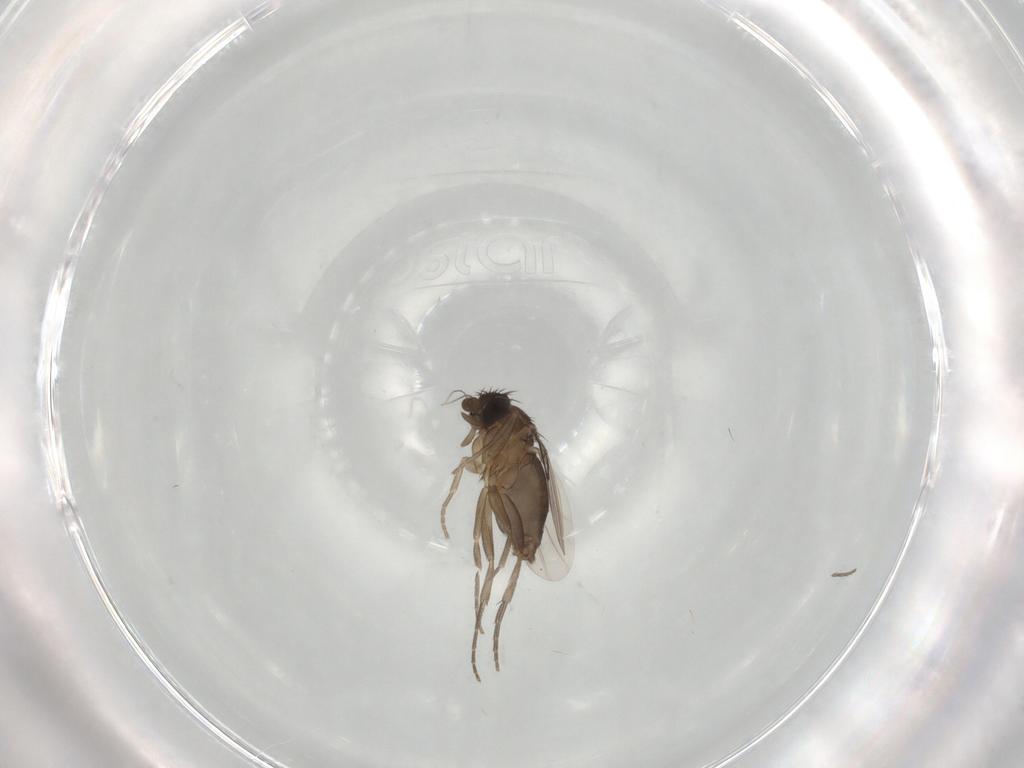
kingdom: Animalia
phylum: Arthropoda
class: Insecta
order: Diptera
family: Phoridae
